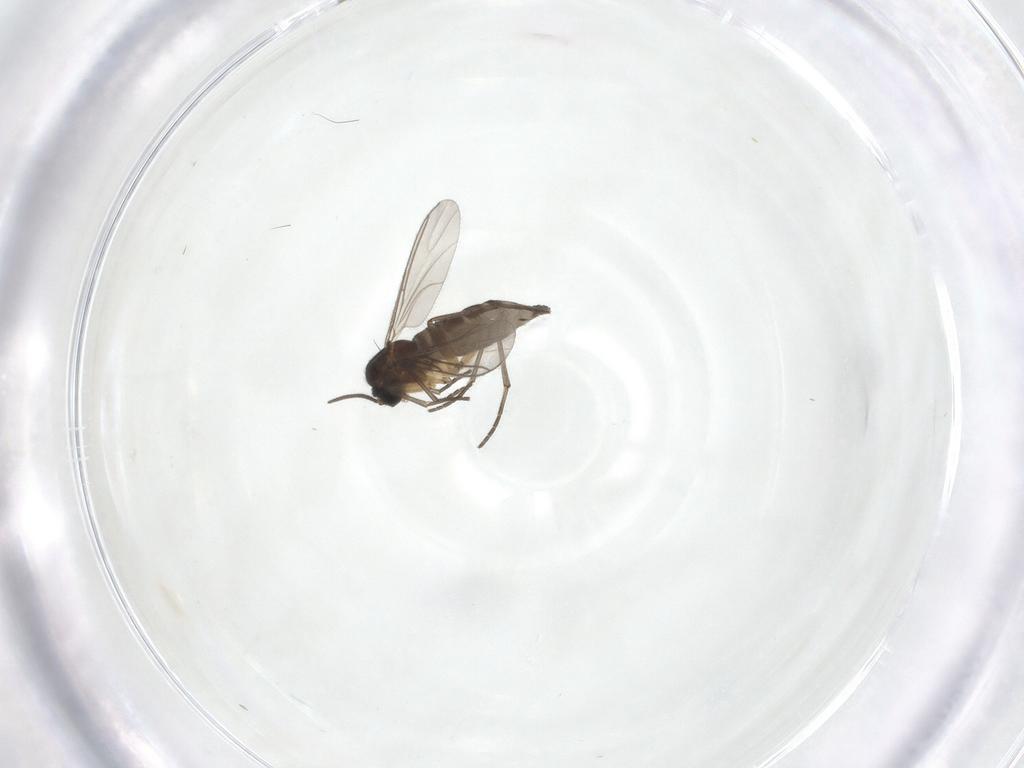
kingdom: Animalia
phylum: Arthropoda
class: Insecta
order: Diptera
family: Sciaridae
